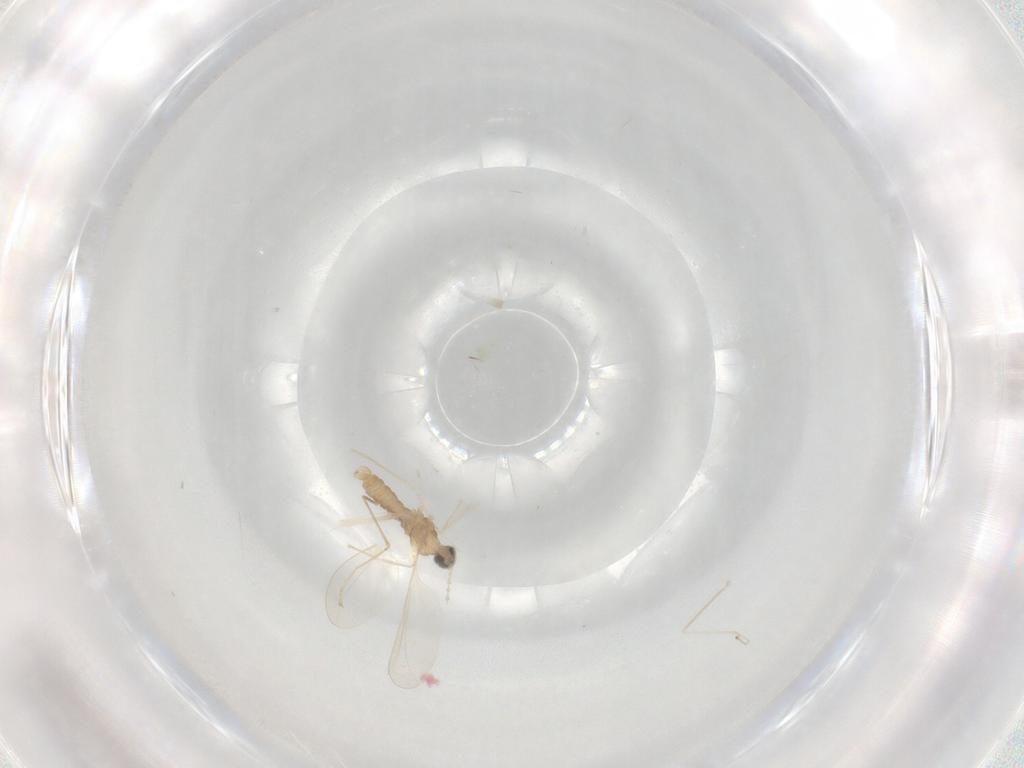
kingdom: Animalia
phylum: Arthropoda
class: Insecta
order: Diptera
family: Cecidomyiidae
